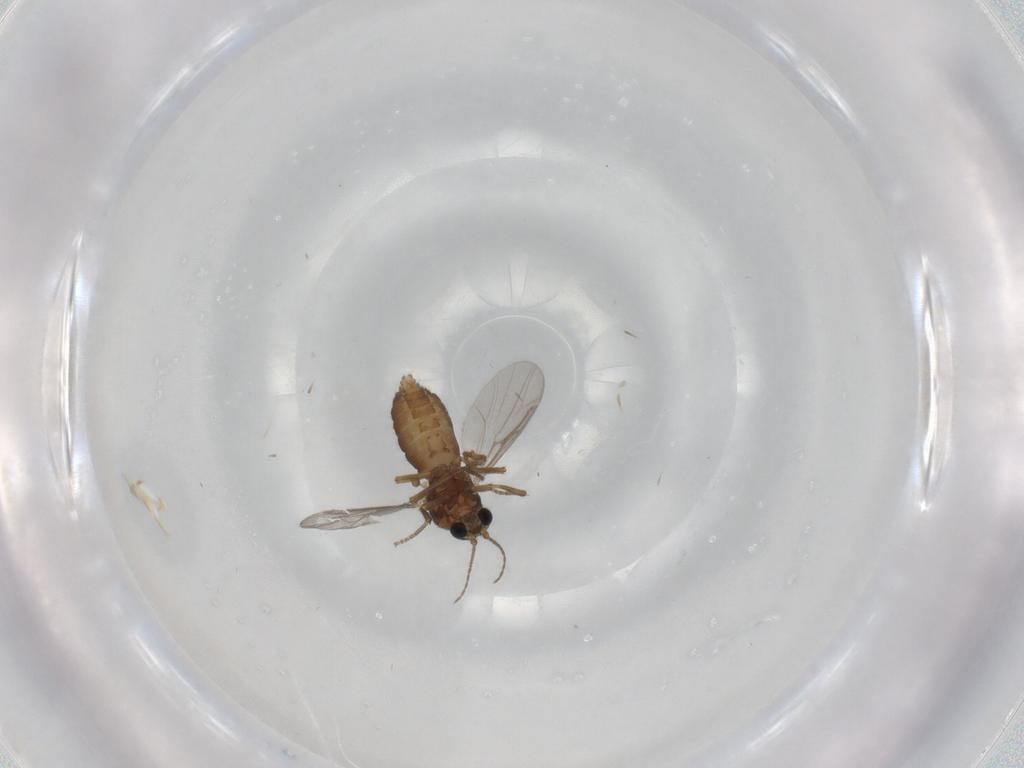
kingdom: Animalia
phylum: Arthropoda
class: Insecta
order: Diptera
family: Ceratopogonidae
